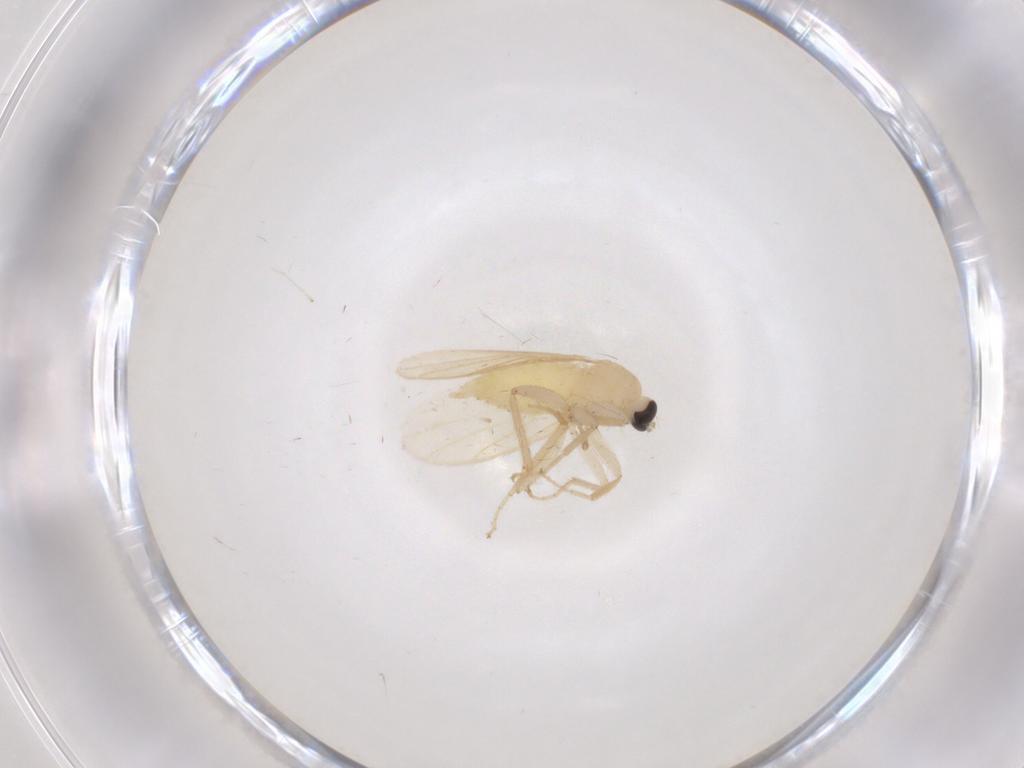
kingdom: Animalia
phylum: Arthropoda
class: Insecta
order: Diptera
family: Hybotidae
